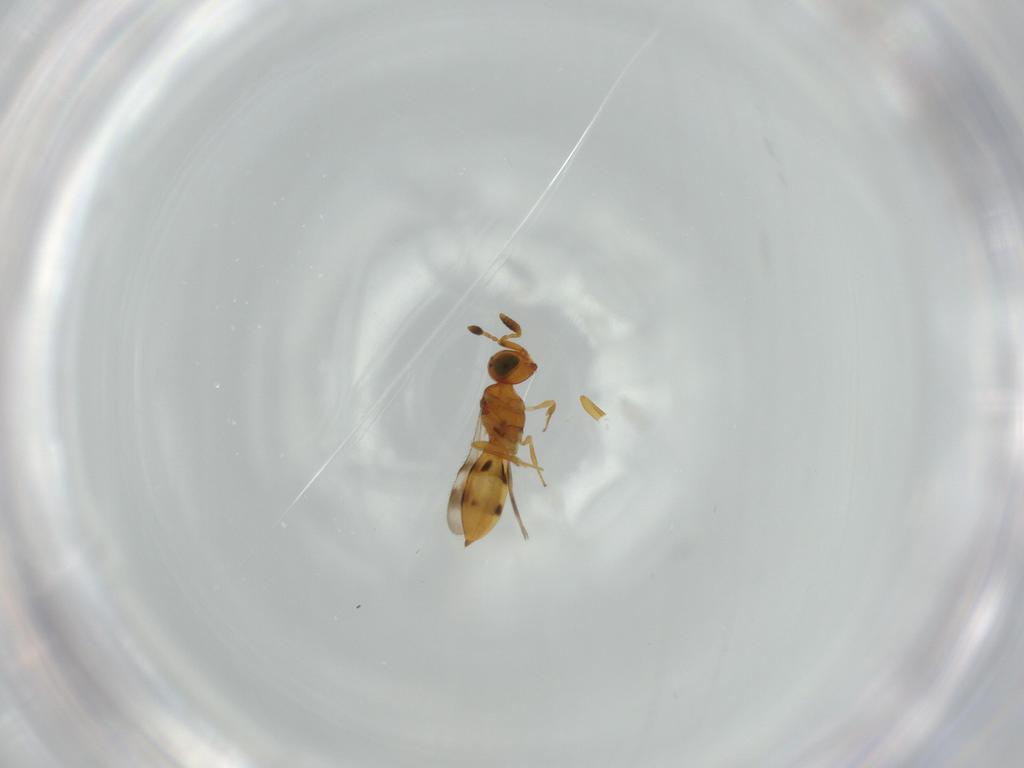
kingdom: Animalia
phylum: Arthropoda
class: Insecta
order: Hymenoptera
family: Scelionidae
